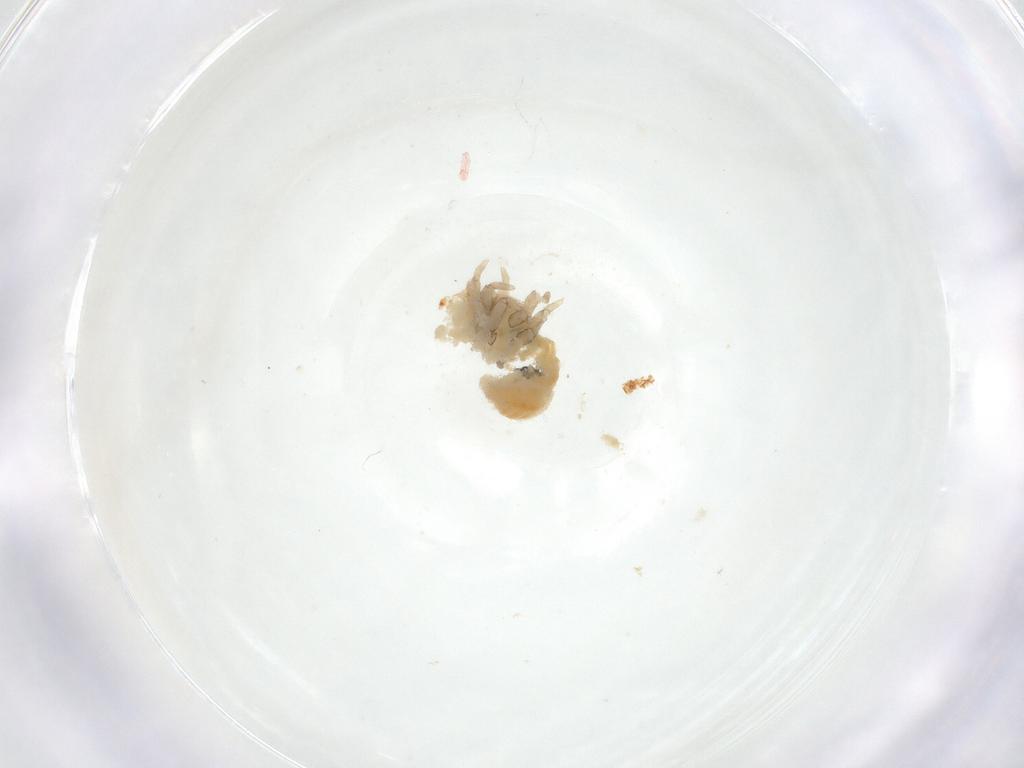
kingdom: Animalia
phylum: Arthropoda
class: Insecta
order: Hemiptera
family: Triozidae
